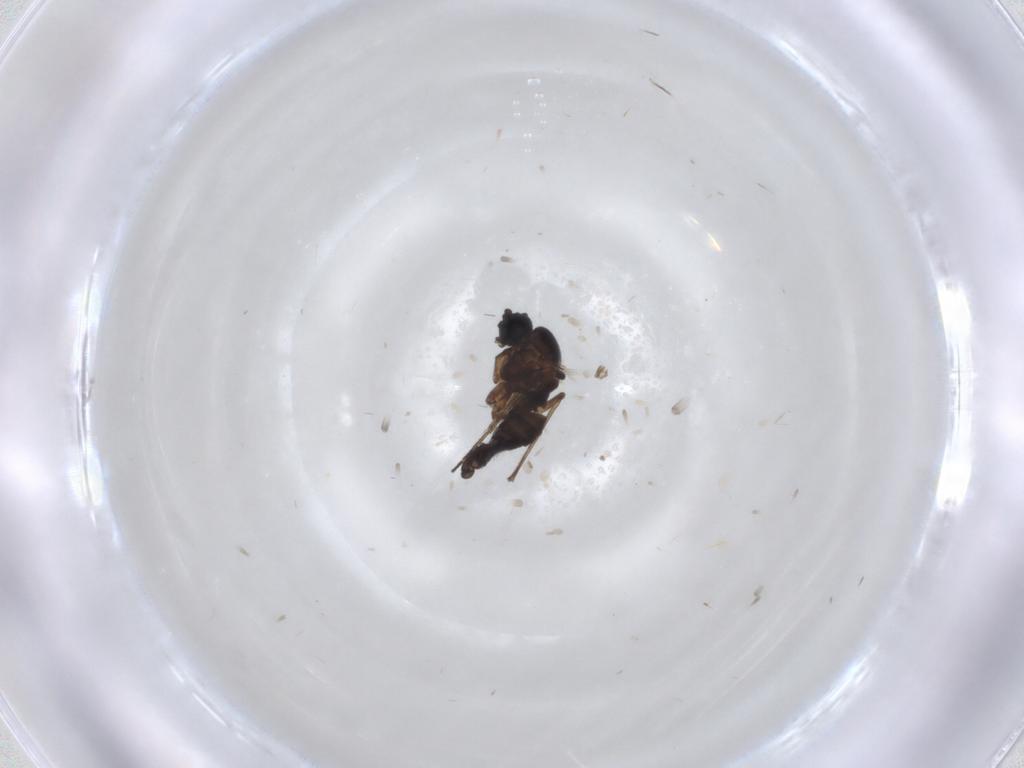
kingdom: Animalia
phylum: Arthropoda
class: Insecta
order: Diptera
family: Sciaridae
